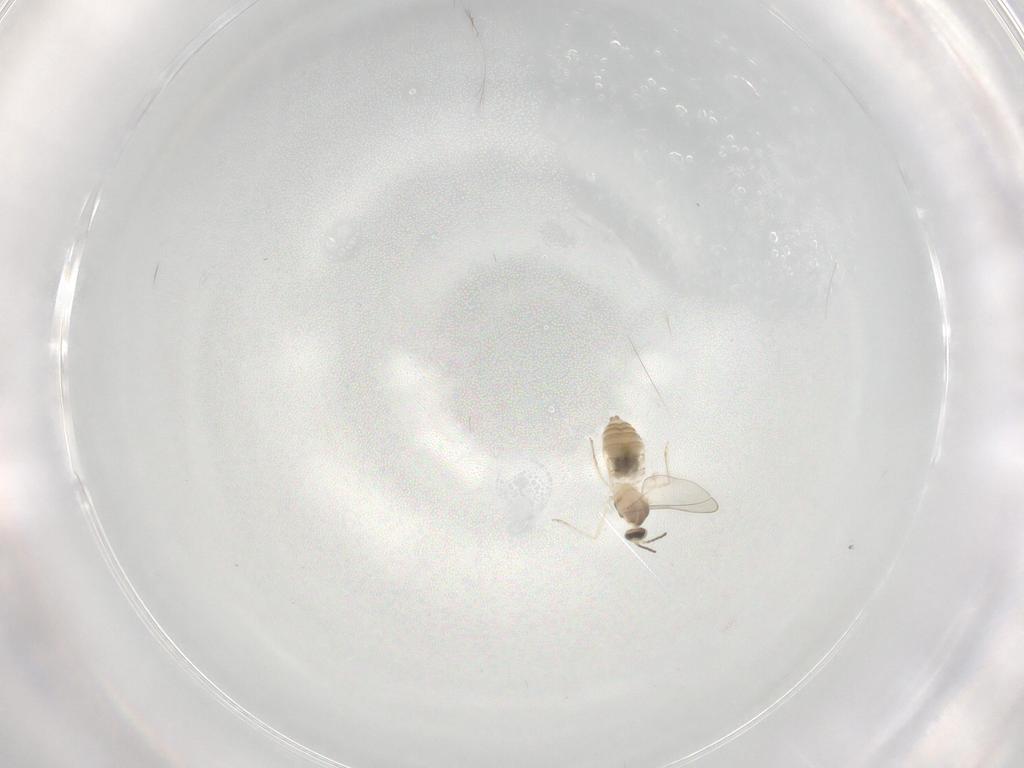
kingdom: Animalia
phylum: Arthropoda
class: Insecta
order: Diptera
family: Cecidomyiidae
